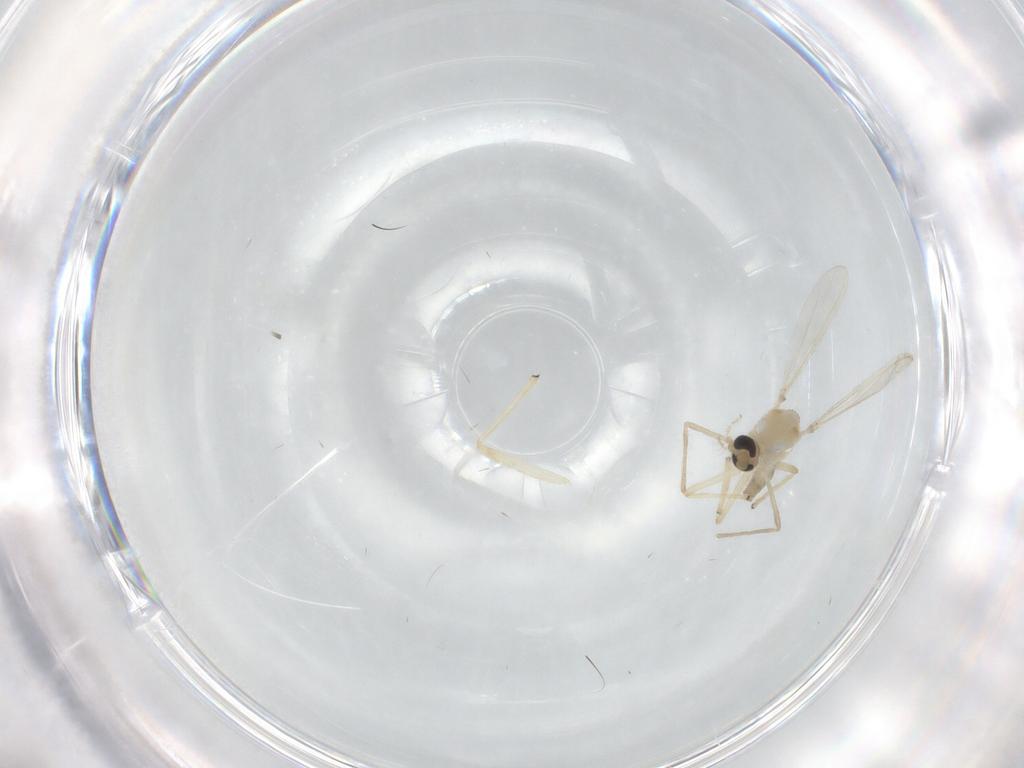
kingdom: Animalia
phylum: Arthropoda
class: Insecta
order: Diptera
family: Chironomidae
